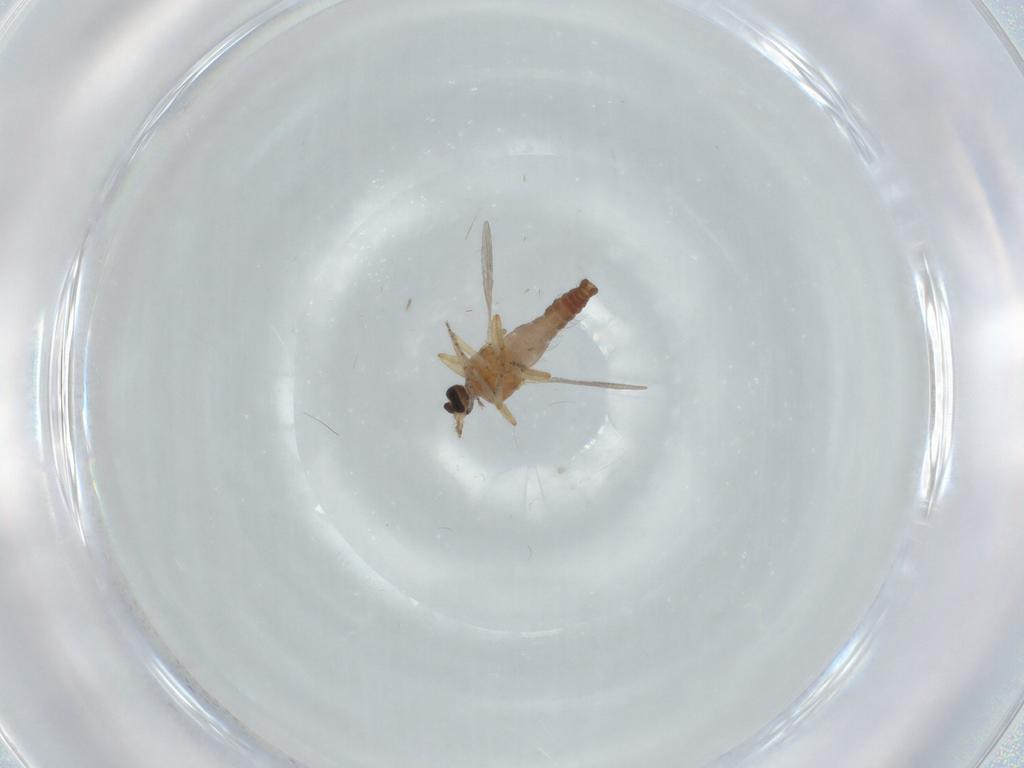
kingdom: Animalia
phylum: Arthropoda
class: Insecta
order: Diptera
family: Ceratopogonidae
